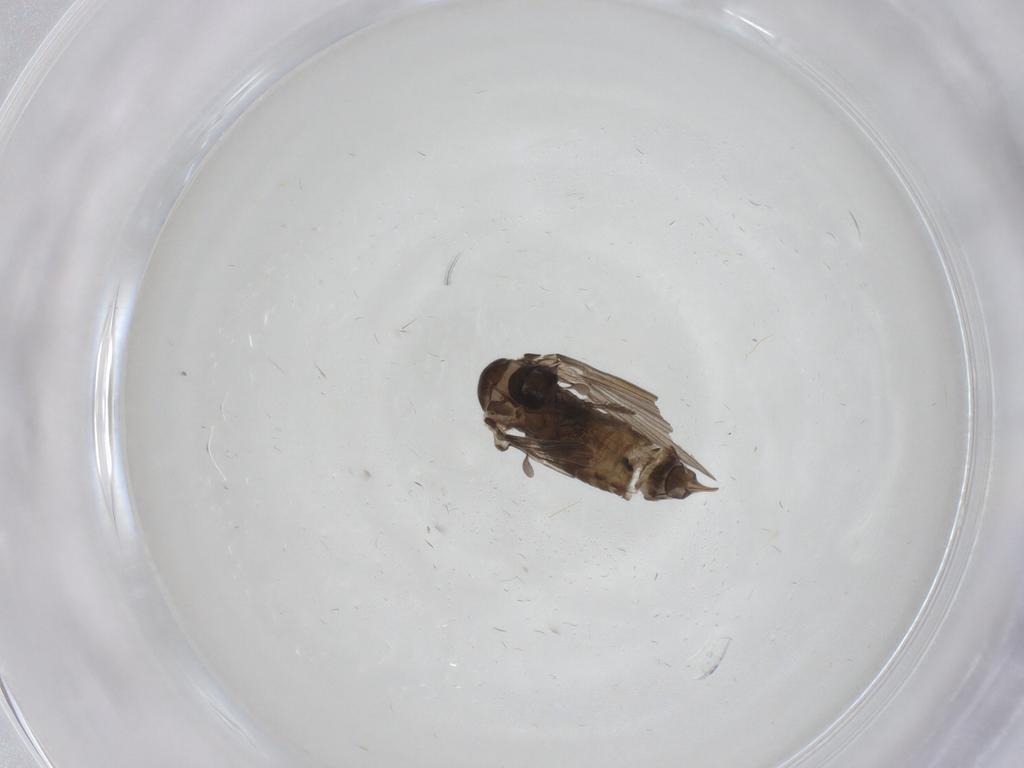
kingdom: Animalia
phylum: Arthropoda
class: Insecta
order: Diptera
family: Psychodidae
